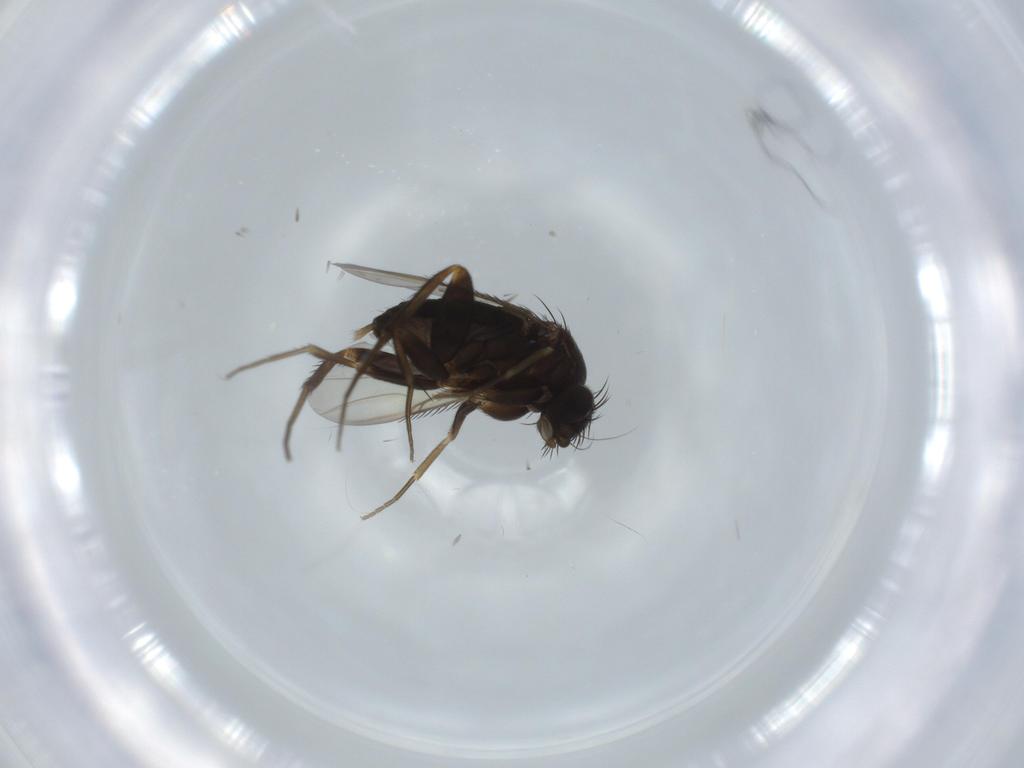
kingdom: Animalia
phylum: Arthropoda
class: Insecta
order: Diptera
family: Phoridae
